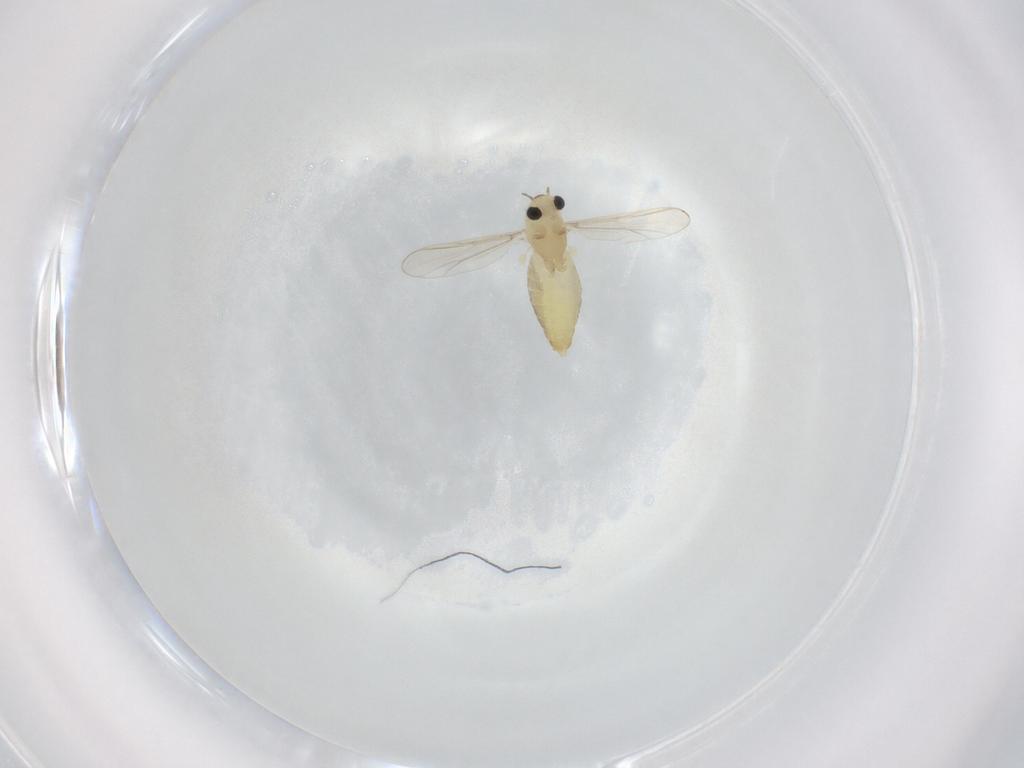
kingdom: Animalia
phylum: Arthropoda
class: Insecta
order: Diptera
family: Chironomidae
